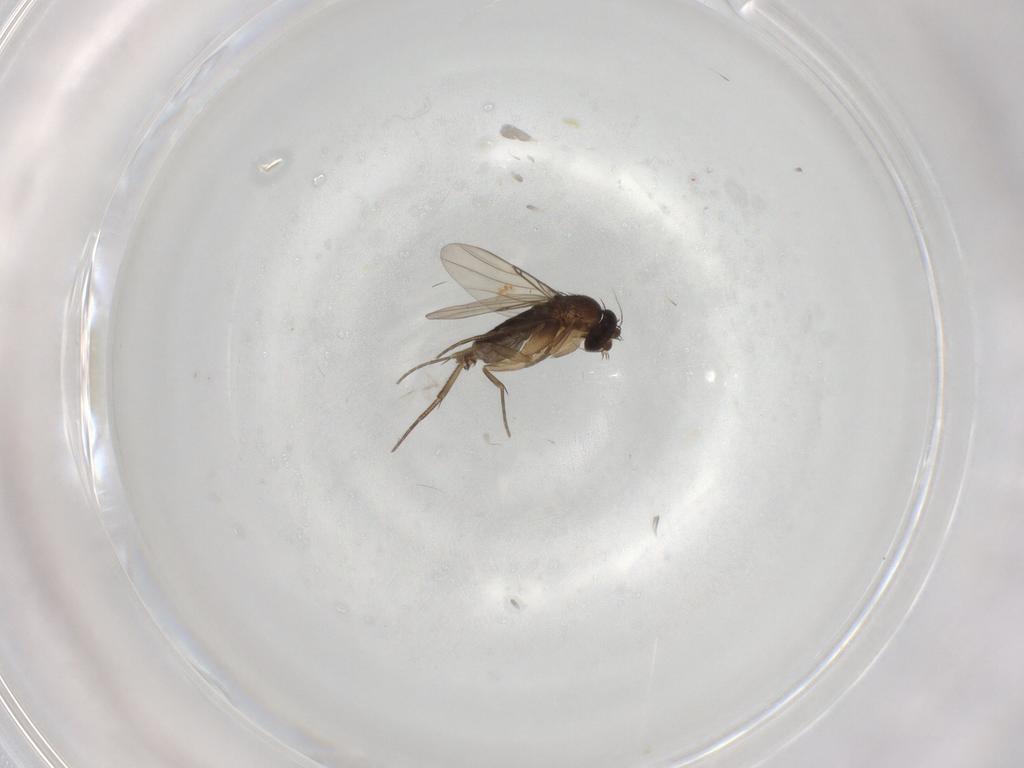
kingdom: Animalia
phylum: Arthropoda
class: Insecta
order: Diptera
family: Phoridae
